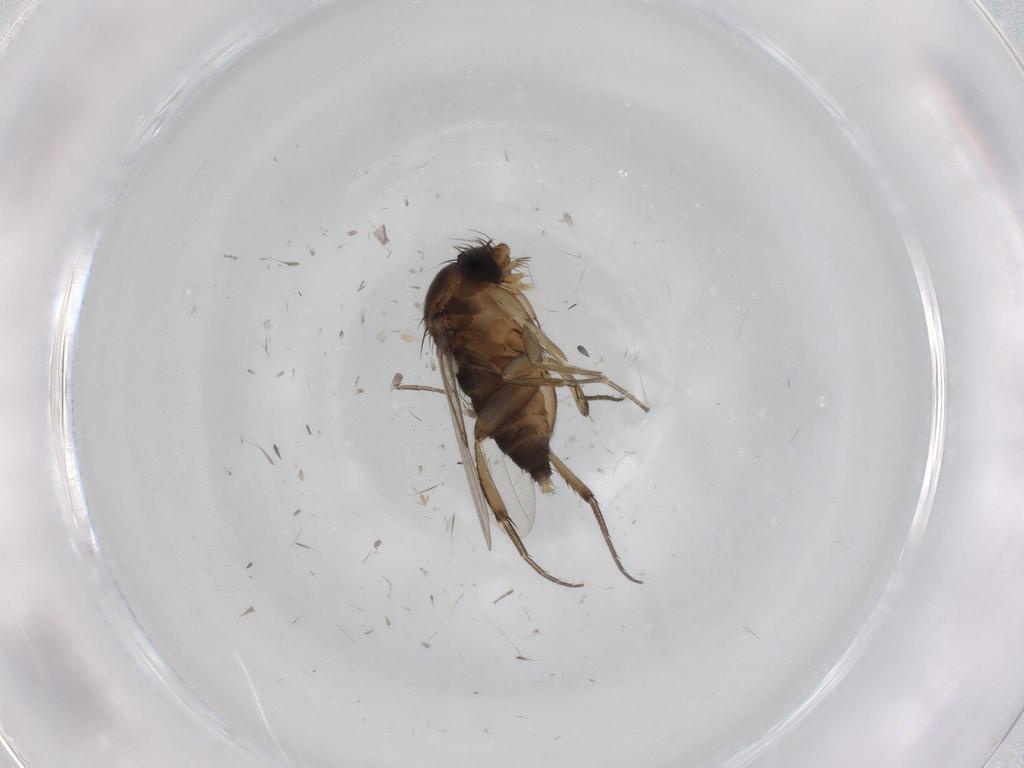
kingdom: Animalia
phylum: Arthropoda
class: Insecta
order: Diptera
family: Phoridae
